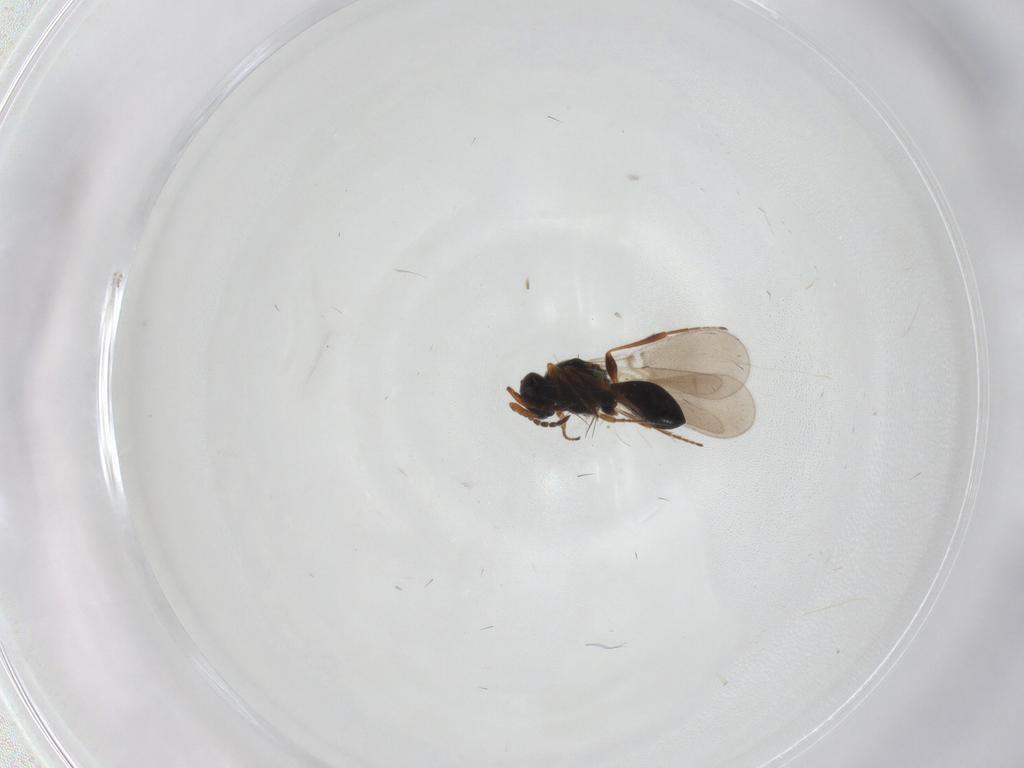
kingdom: Animalia
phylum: Arthropoda
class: Insecta
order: Hymenoptera
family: Platygastridae
